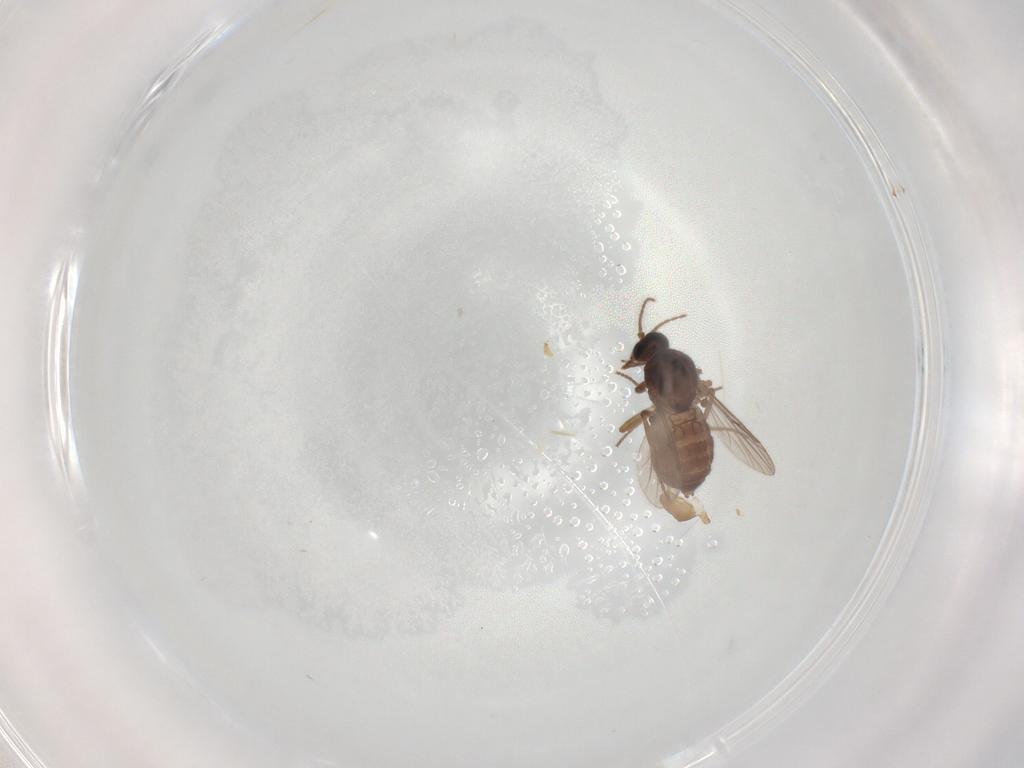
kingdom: Animalia
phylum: Arthropoda
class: Insecta
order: Diptera
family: Ceratopogonidae
